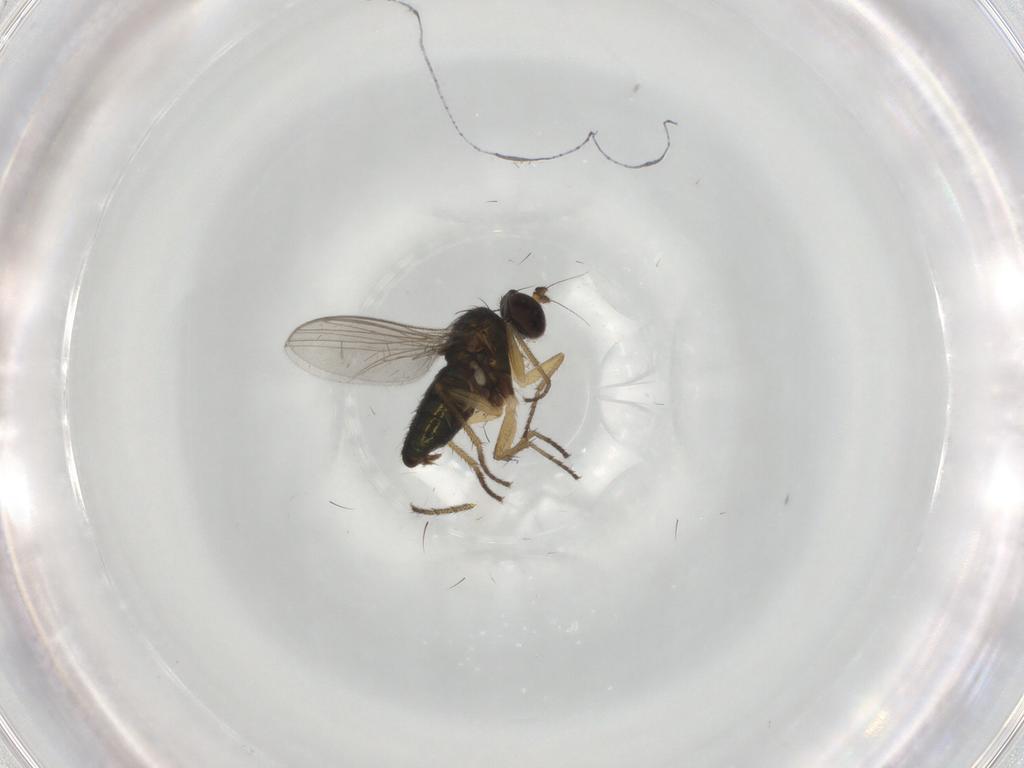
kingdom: Animalia
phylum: Arthropoda
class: Insecta
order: Diptera
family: Dolichopodidae
